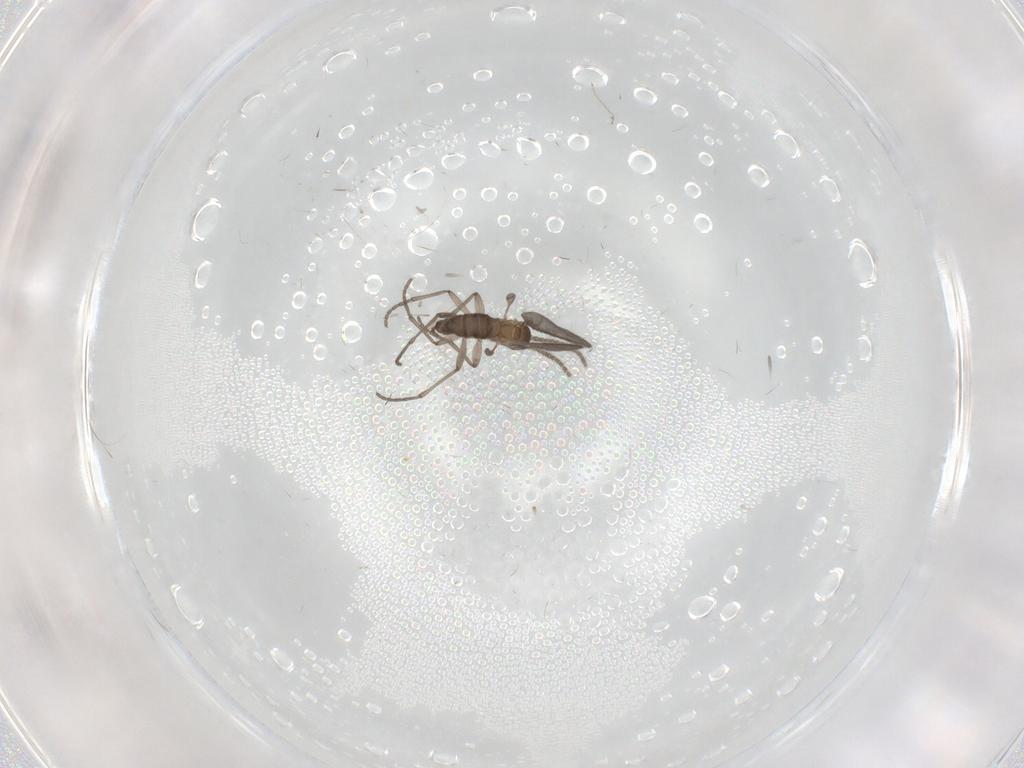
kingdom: Animalia
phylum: Arthropoda
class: Insecta
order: Diptera
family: Sciaridae
